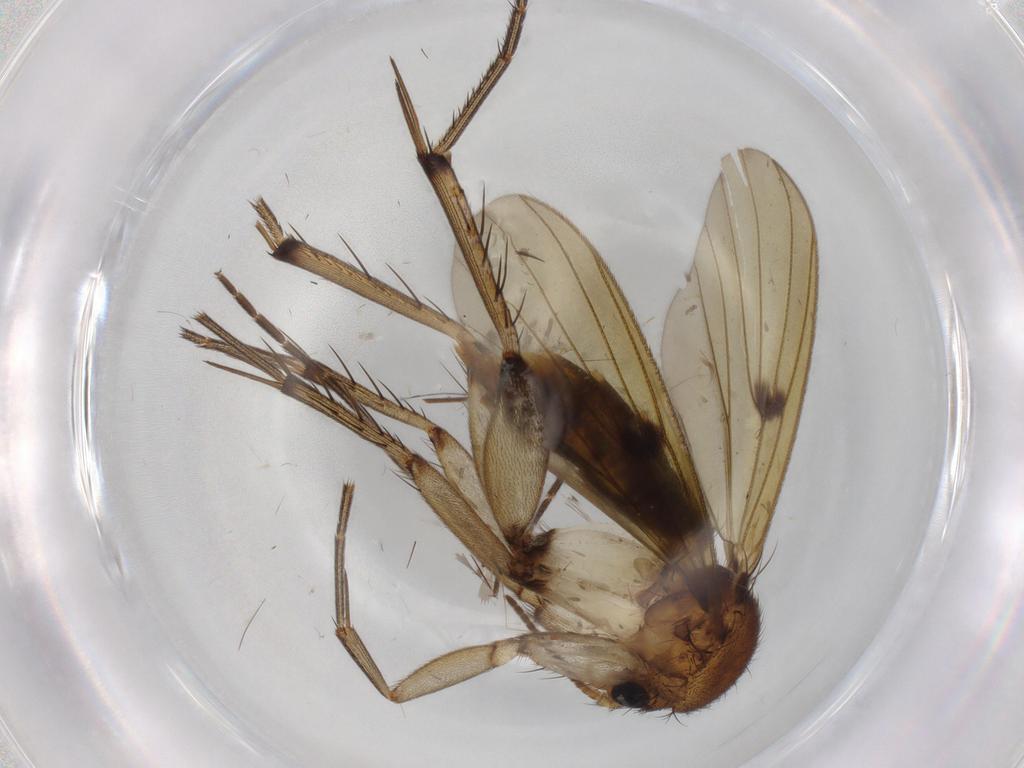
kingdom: Animalia
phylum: Arthropoda
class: Insecta
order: Diptera
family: Mycetophilidae
